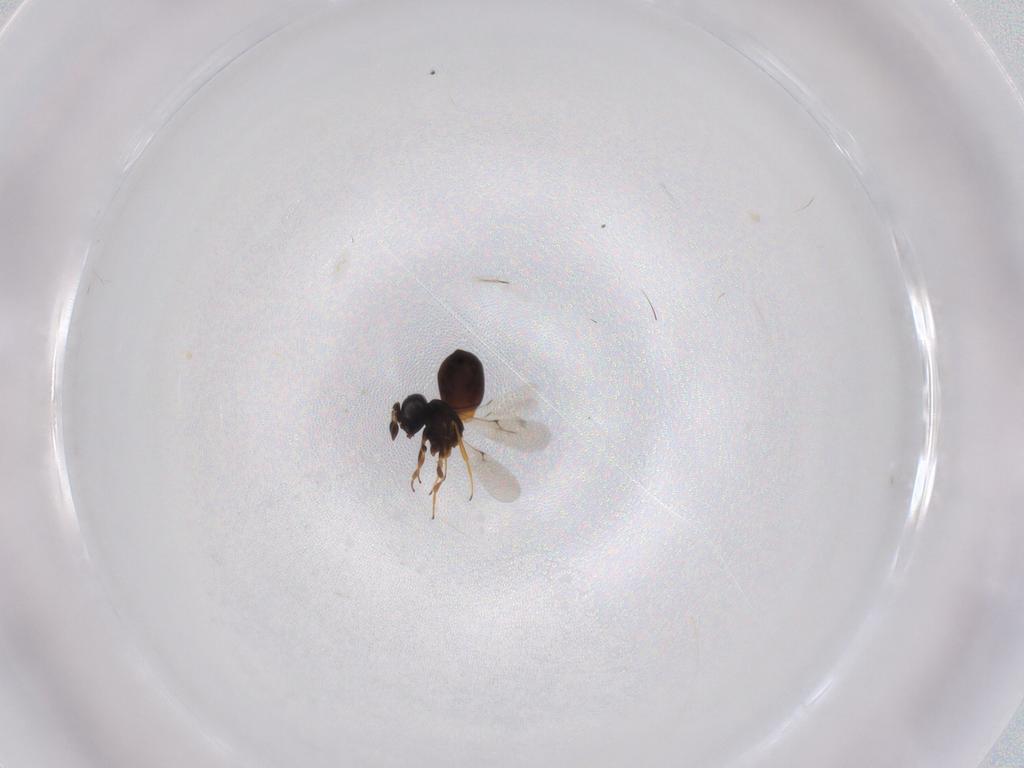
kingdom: Animalia
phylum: Arthropoda
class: Insecta
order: Hymenoptera
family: Scelionidae
